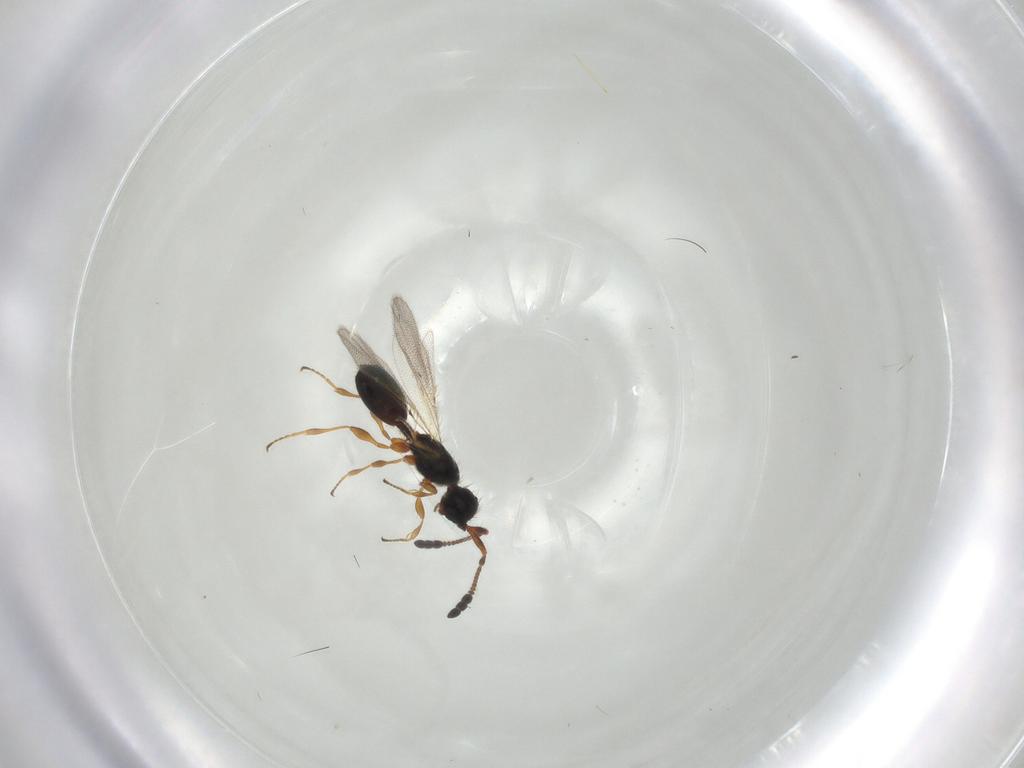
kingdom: Animalia
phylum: Arthropoda
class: Insecta
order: Hymenoptera
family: Diapriidae
